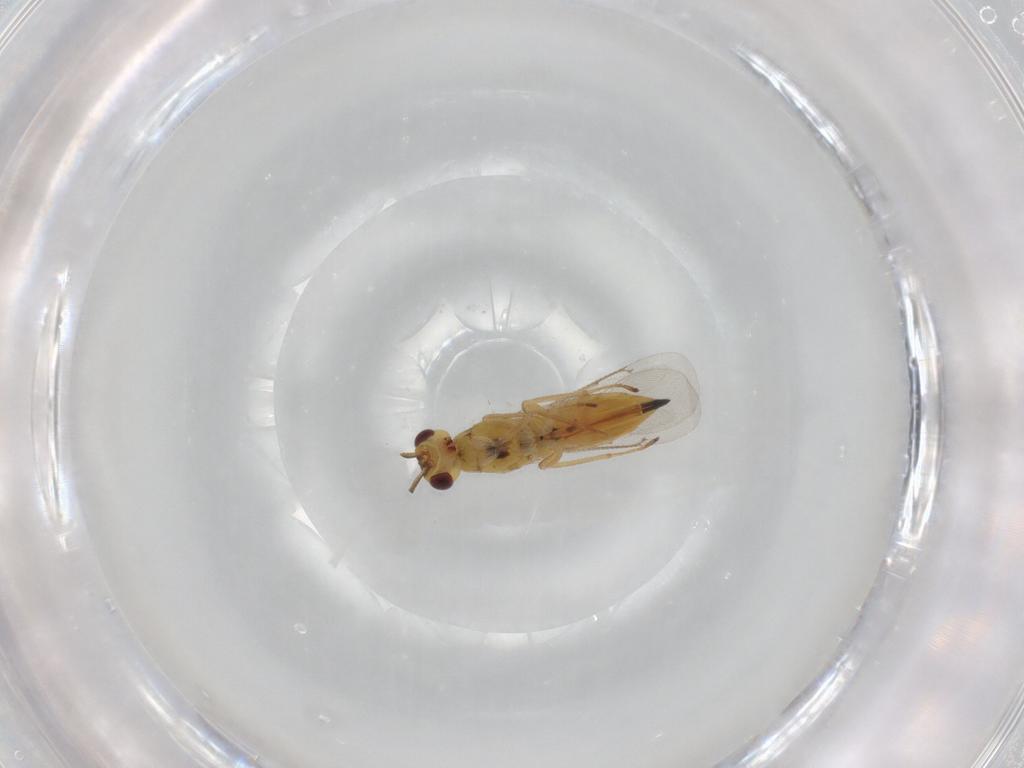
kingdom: Animalia
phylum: Arthropoda
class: Insecta
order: Hymenoptera
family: Eulophidae
